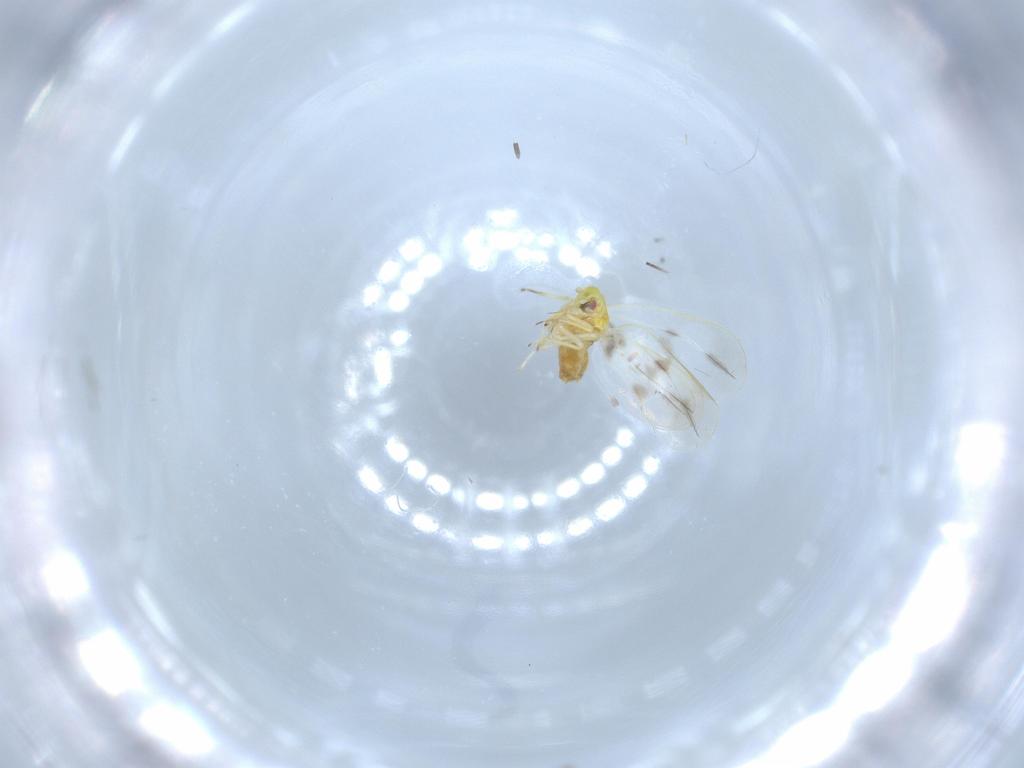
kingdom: Animalia
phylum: Arthropoda
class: Insecta
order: Hemiptera
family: Aleyrodidae
